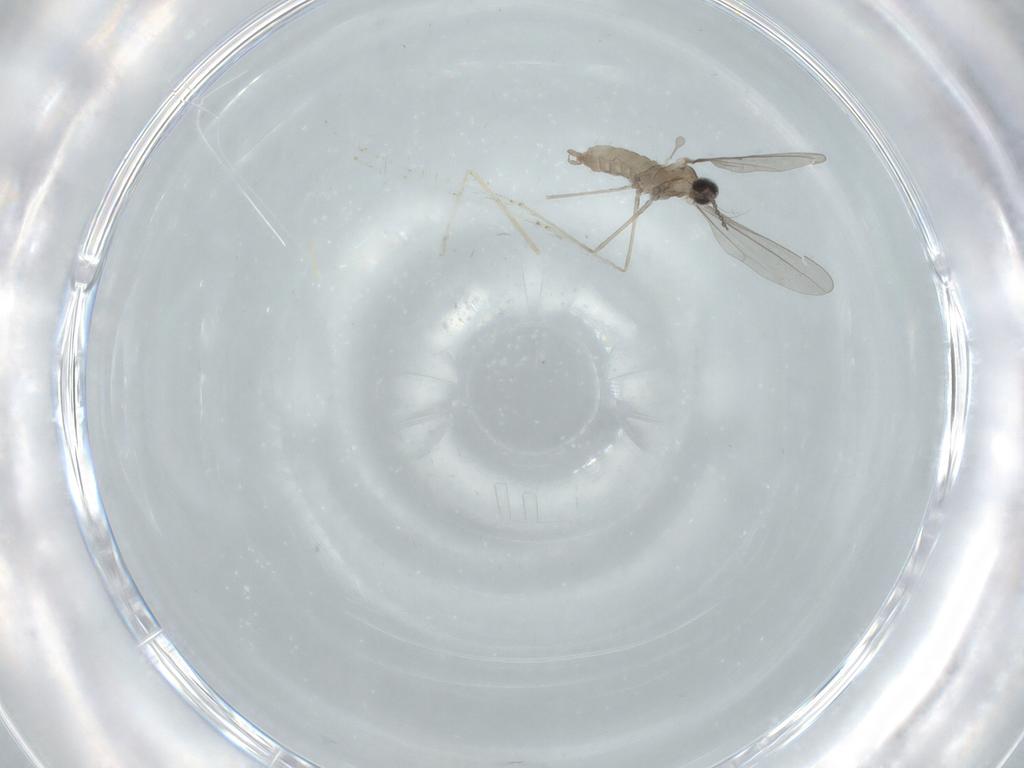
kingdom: Animalia
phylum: Arthropoda
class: Insecta
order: Diptera
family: Cecidomyiidae
